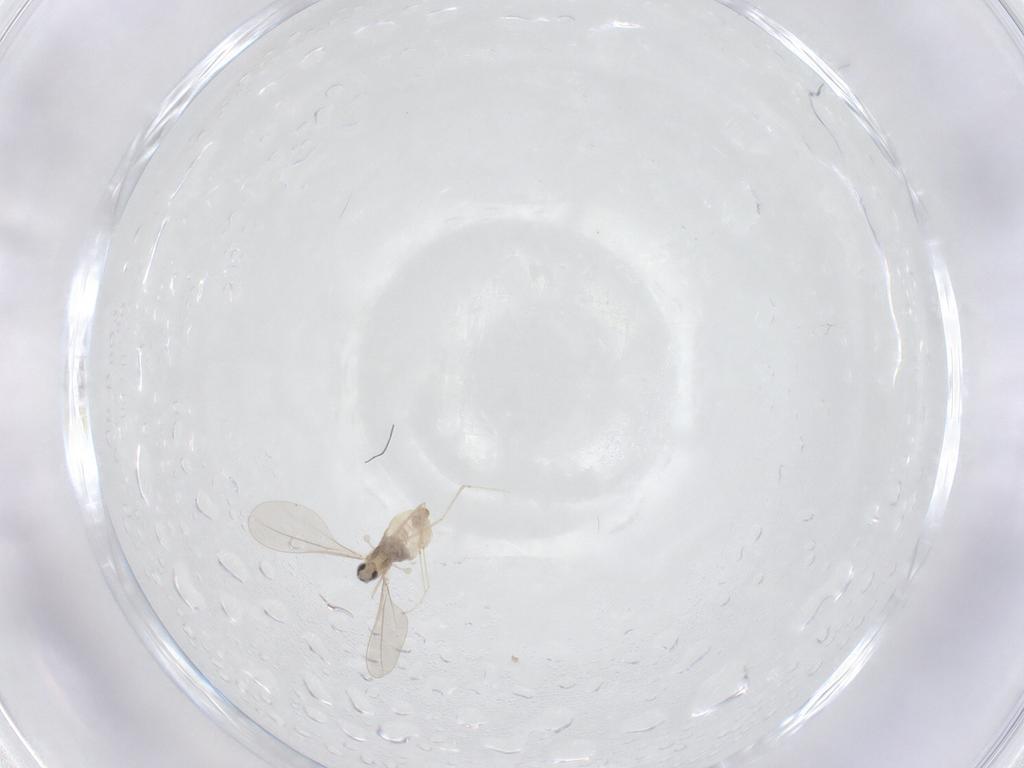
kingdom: Animalia
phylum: Arthropoda
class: Insecta
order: Diptera
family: Cecidomyiidae
